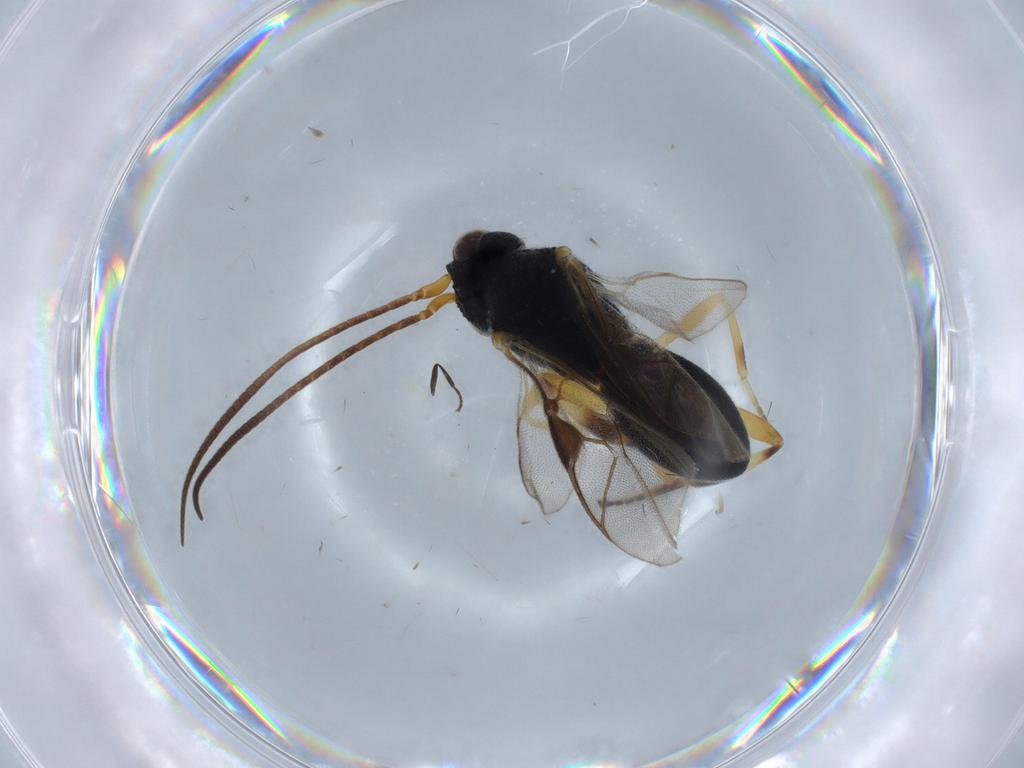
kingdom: Animalia
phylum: Arthropoda
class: Insecta
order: Hymenoptera
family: Braconidae
